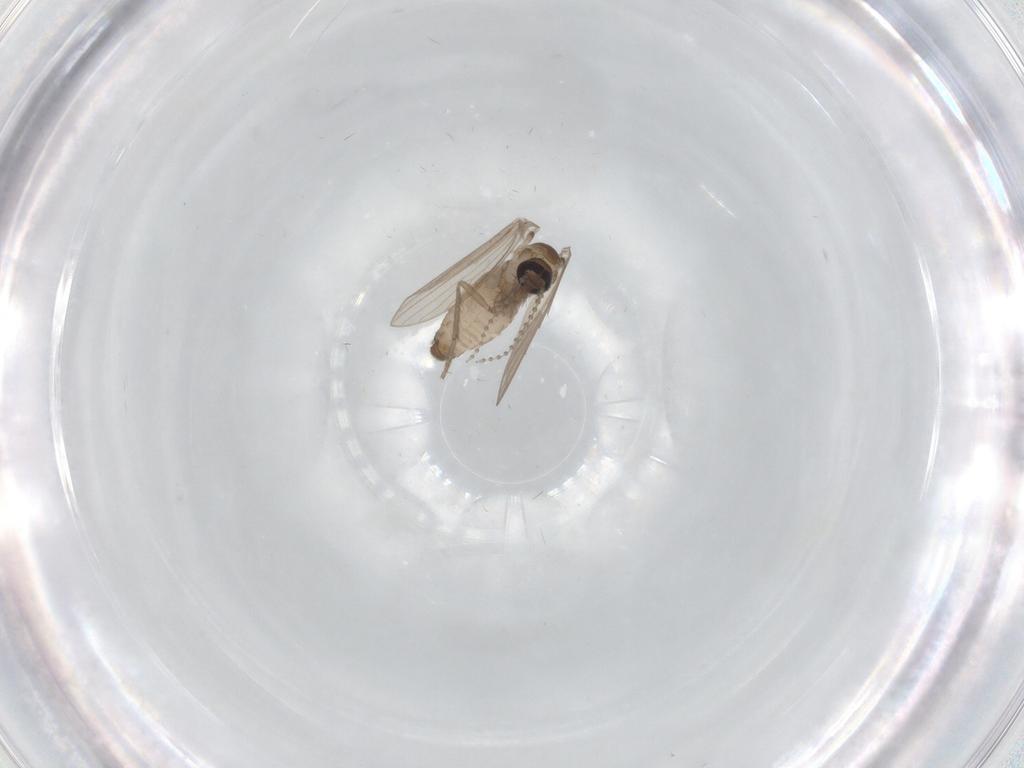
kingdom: Animalia
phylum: Arthropoda
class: Insecta
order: Diptera
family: Psychodidae
